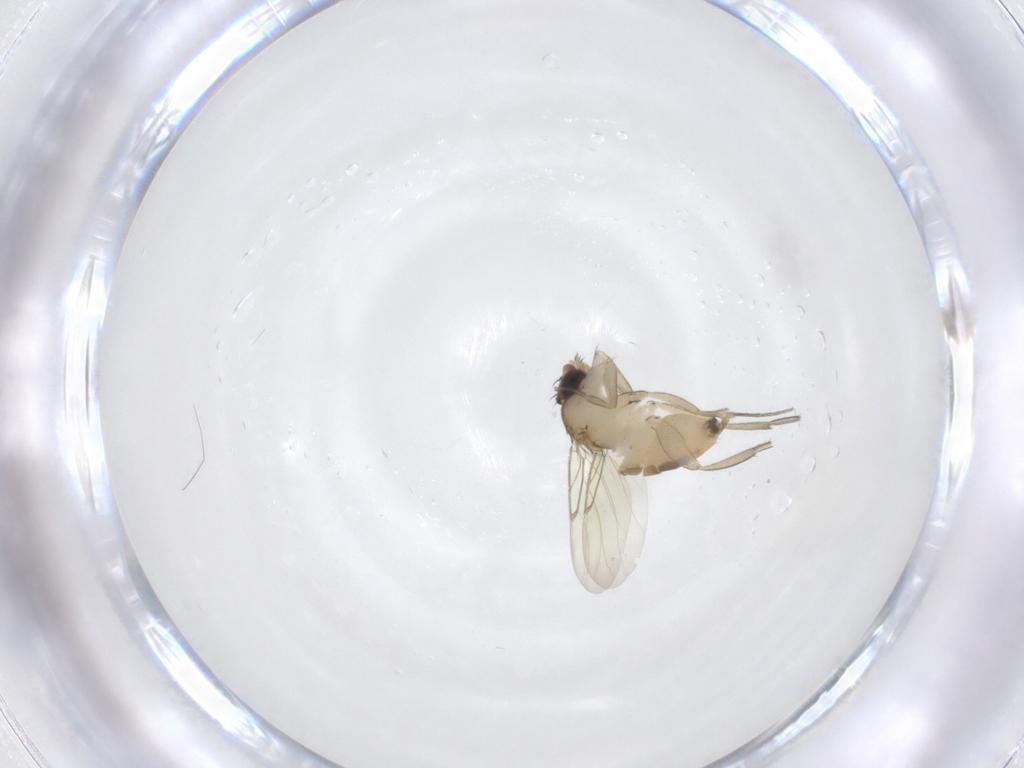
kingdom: Animalia
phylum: Arthropoda
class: Insecta
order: Diptera
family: Phoridae
